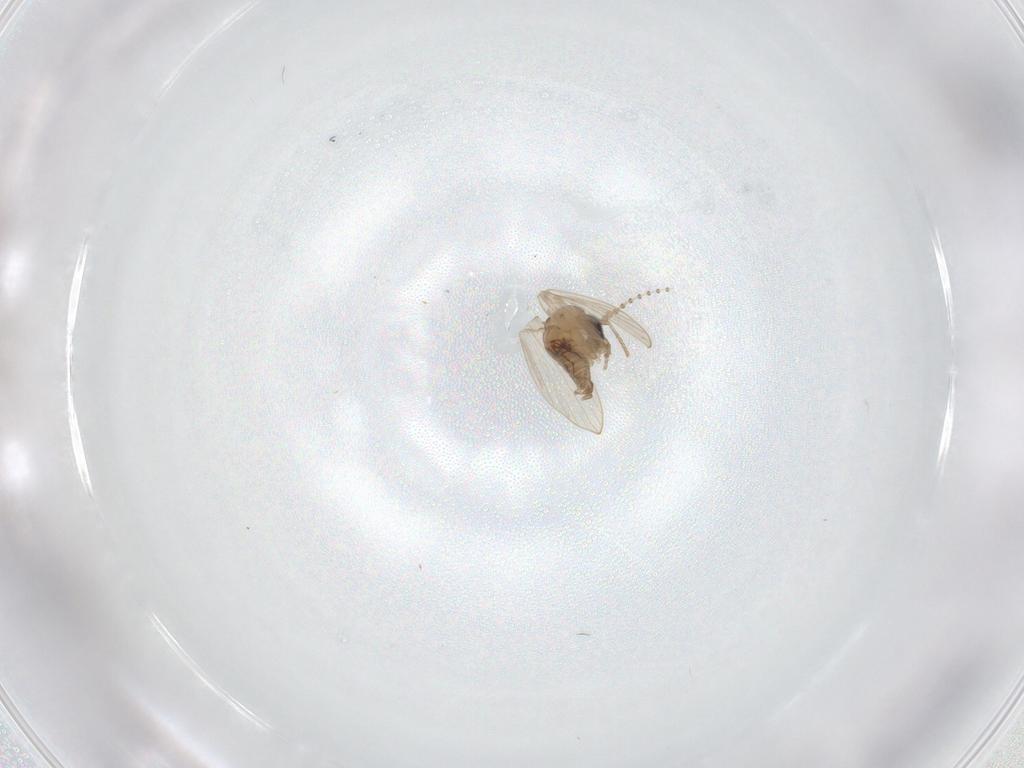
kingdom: Animalia
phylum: Arthropoda
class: Insecta
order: Diptera
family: Psychodidae
